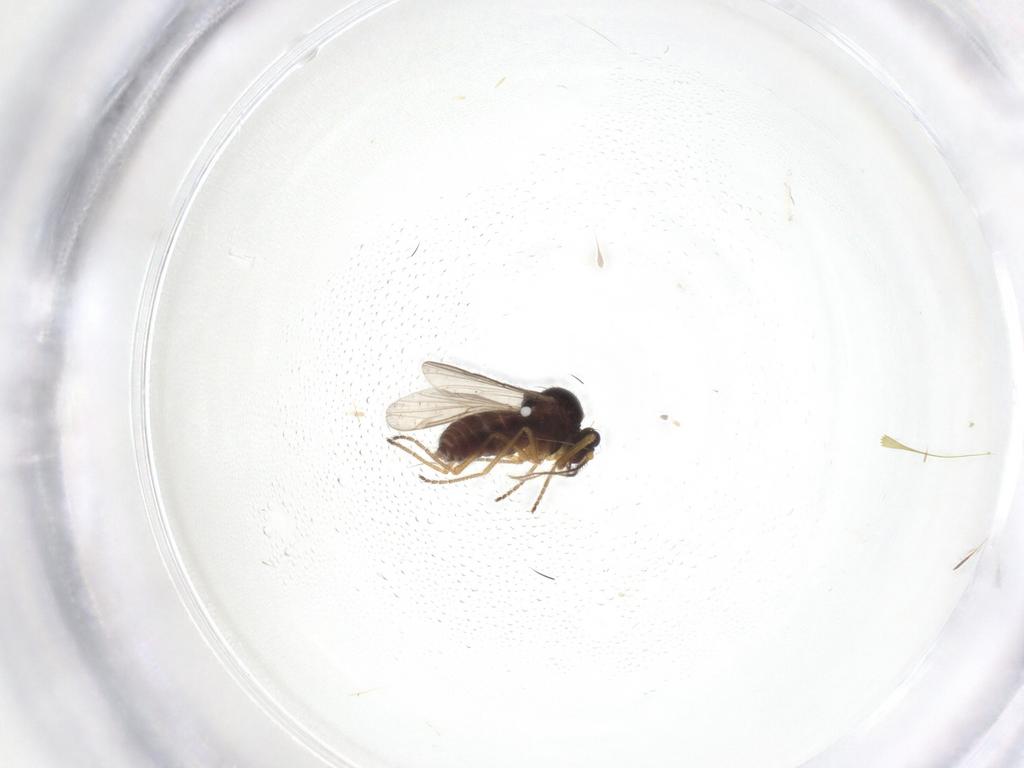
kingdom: Animalia
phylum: Arthropoda
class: Insecta
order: Diptera
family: Ceratopogonidae
